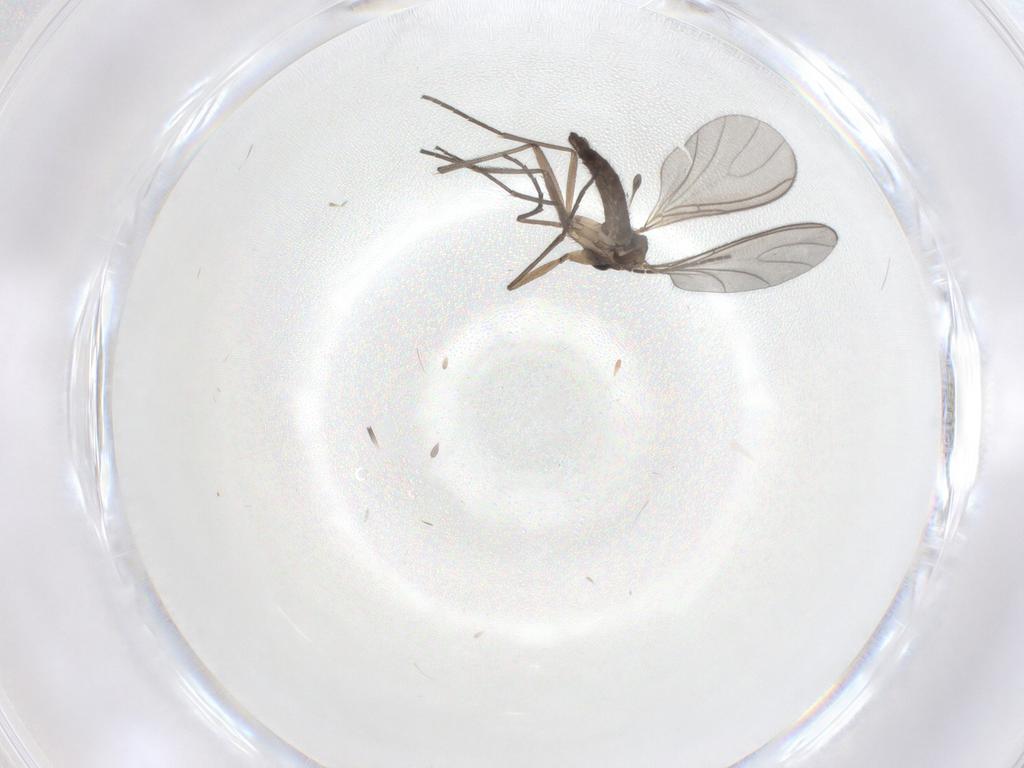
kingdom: Animalia
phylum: Arthropoda
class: Insecta
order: Diptera
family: Sciaridae
